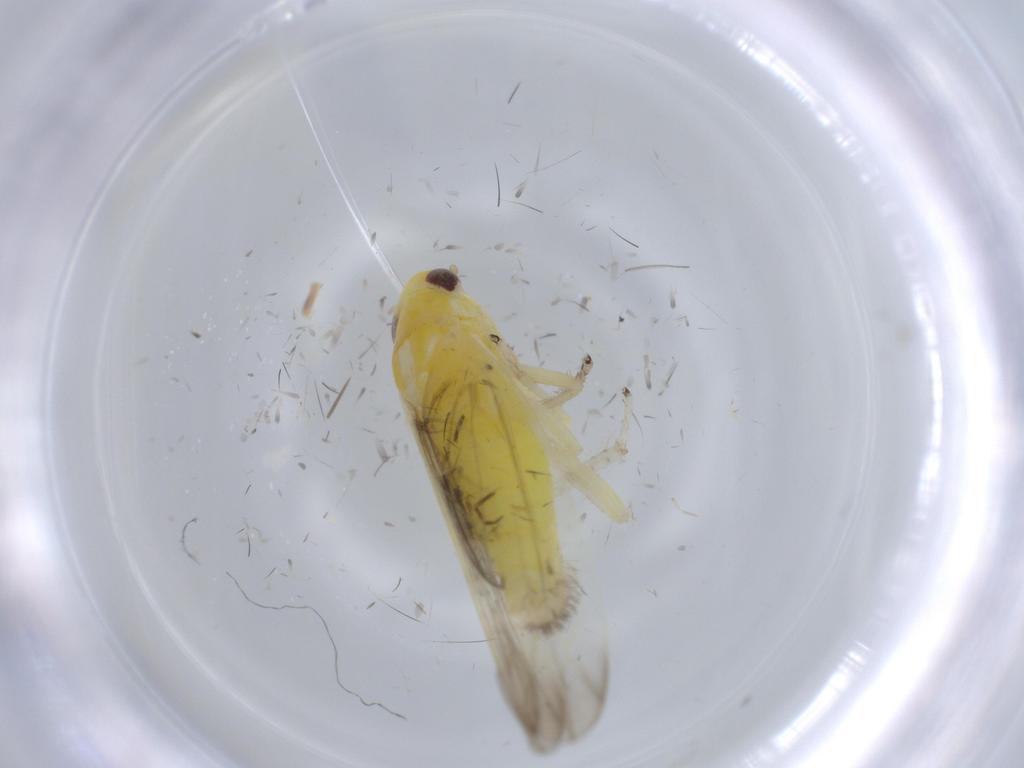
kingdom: Animalia
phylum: Arthropoda
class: Insecta
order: Hemiptera
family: Cicadellidae
